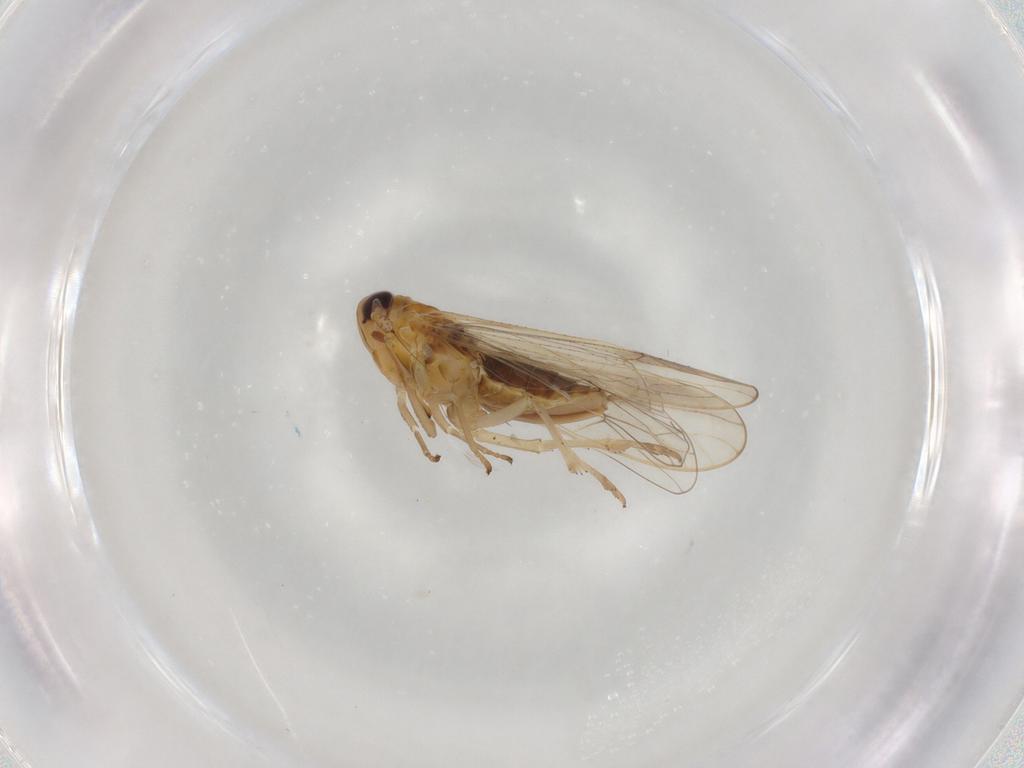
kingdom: Animalia
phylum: Arthropoda
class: Insecta
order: Hemiptera
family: Delphacidae
